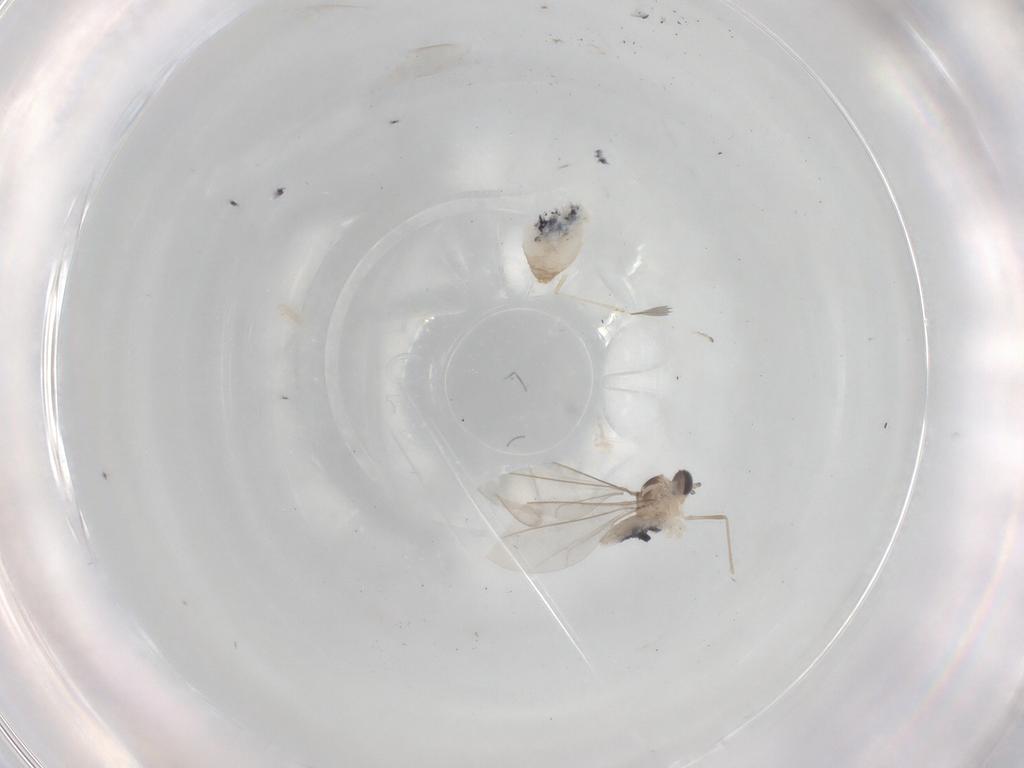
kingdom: Animalia
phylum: Arthropoda
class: Insecta
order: Diptera
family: Cecidomyiidae
